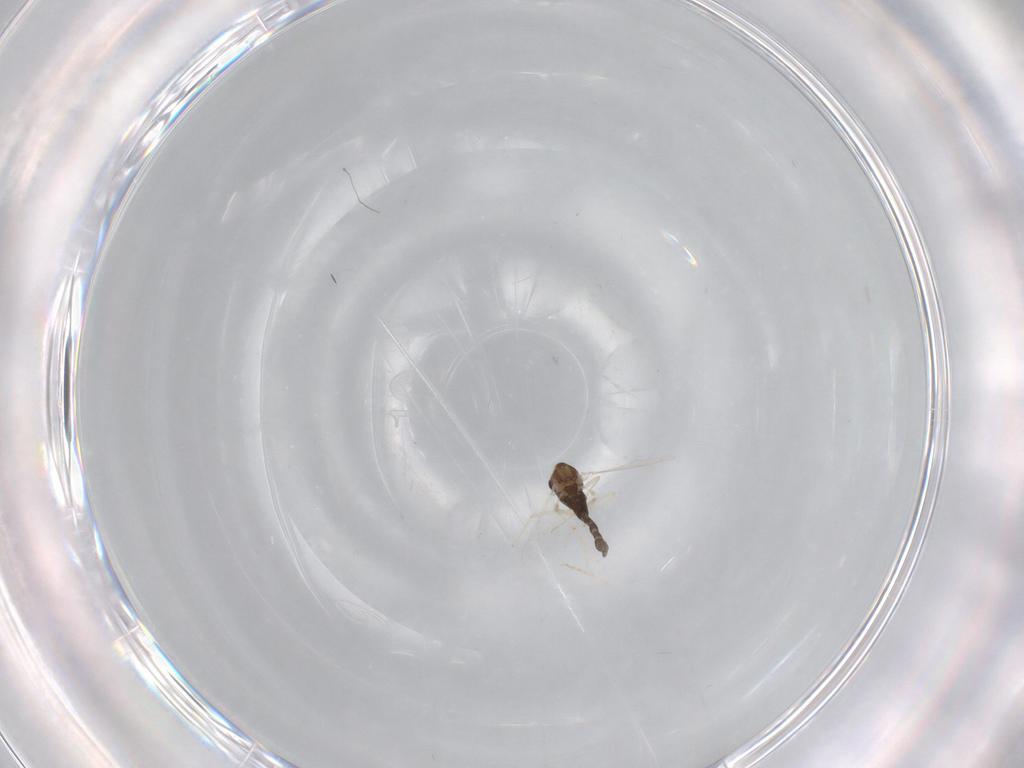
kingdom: Animalia
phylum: Arthropoda
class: Insecta
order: Diptera
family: Chironomidae
